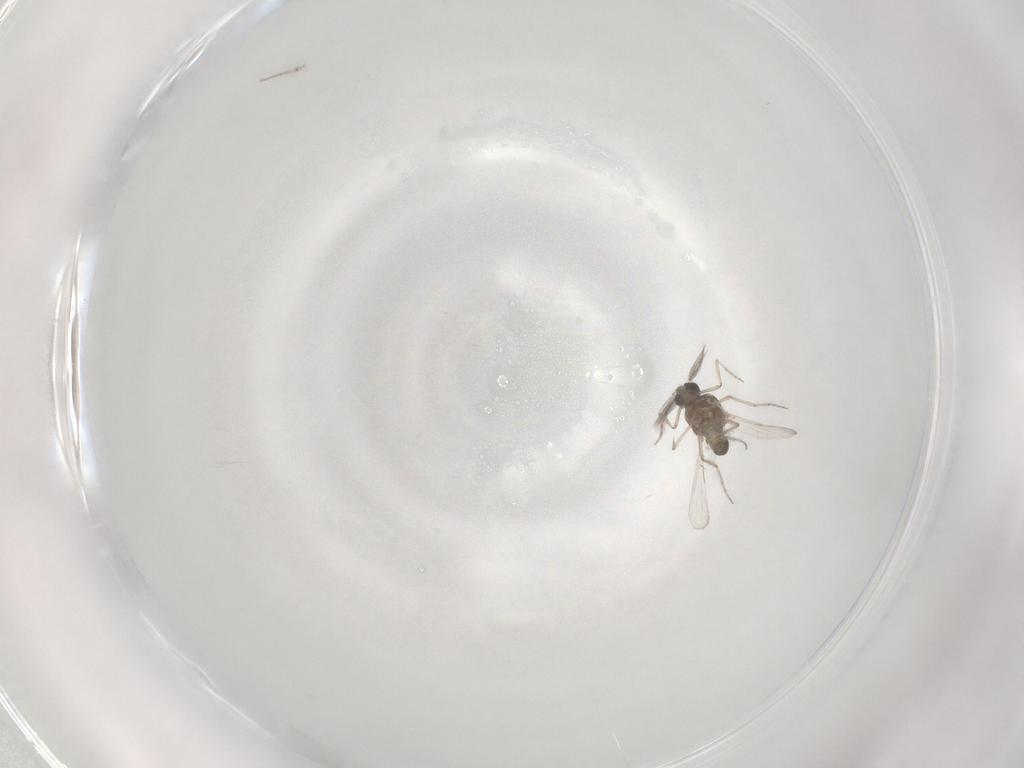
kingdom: Animalia
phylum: Arthropoda
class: Insecta
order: Diptera
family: Ceratopogonidae
